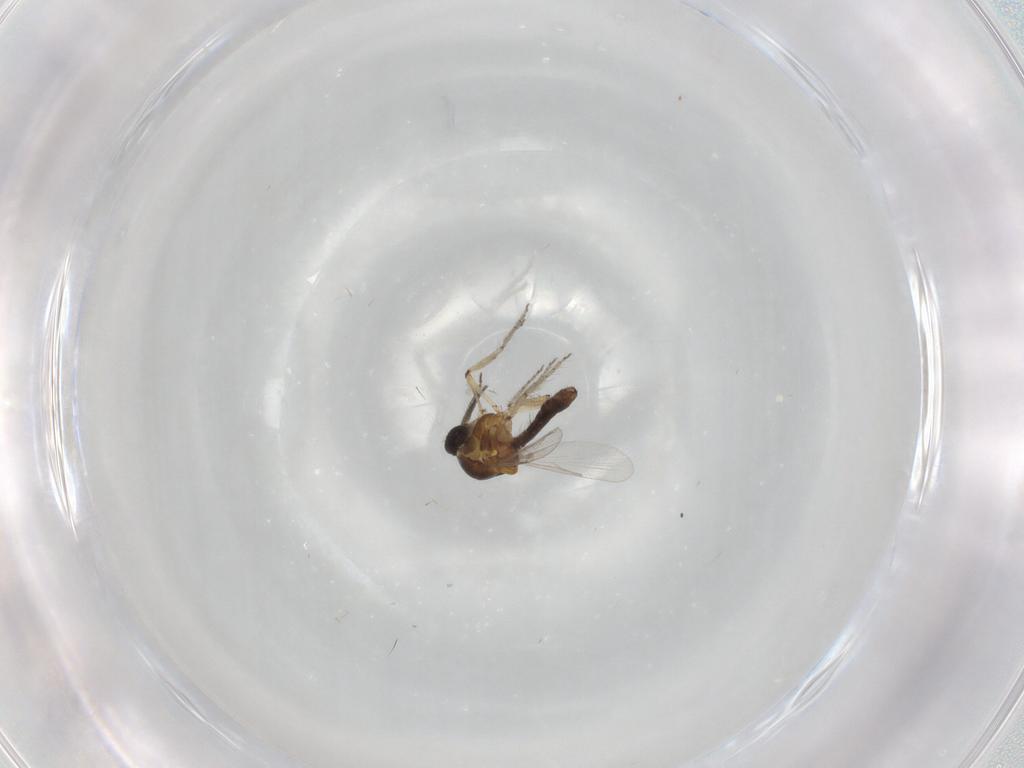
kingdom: Animalia
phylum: Arthropoda
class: Insecta
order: Diptera
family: Ceratopogonidae
